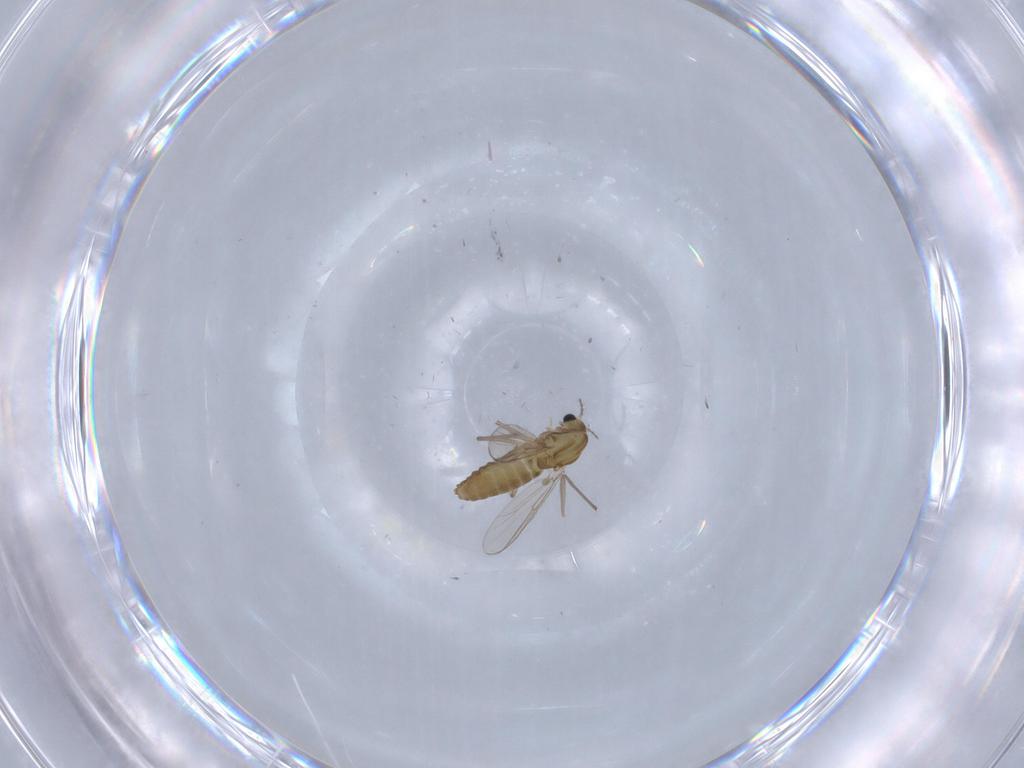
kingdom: Animalia
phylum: Arthropoda
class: Insecta
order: Diptera
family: Chironomidae
